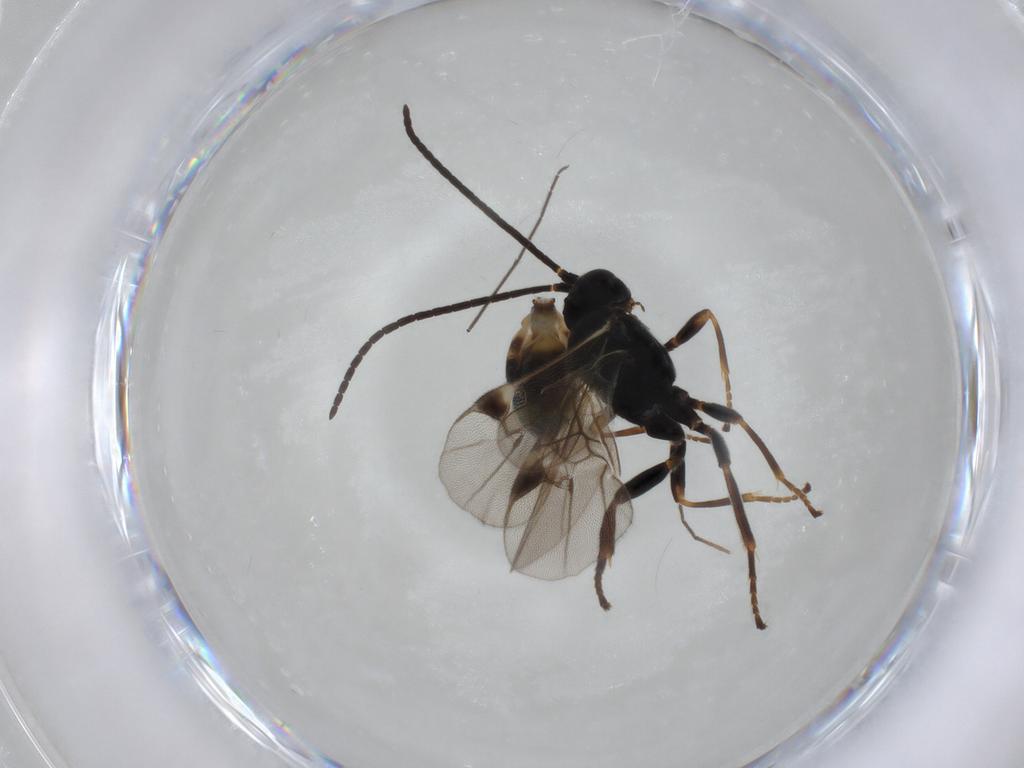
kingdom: Animalia
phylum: Arthropoda
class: Insecta
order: Hymenoptera
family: Braconidae
